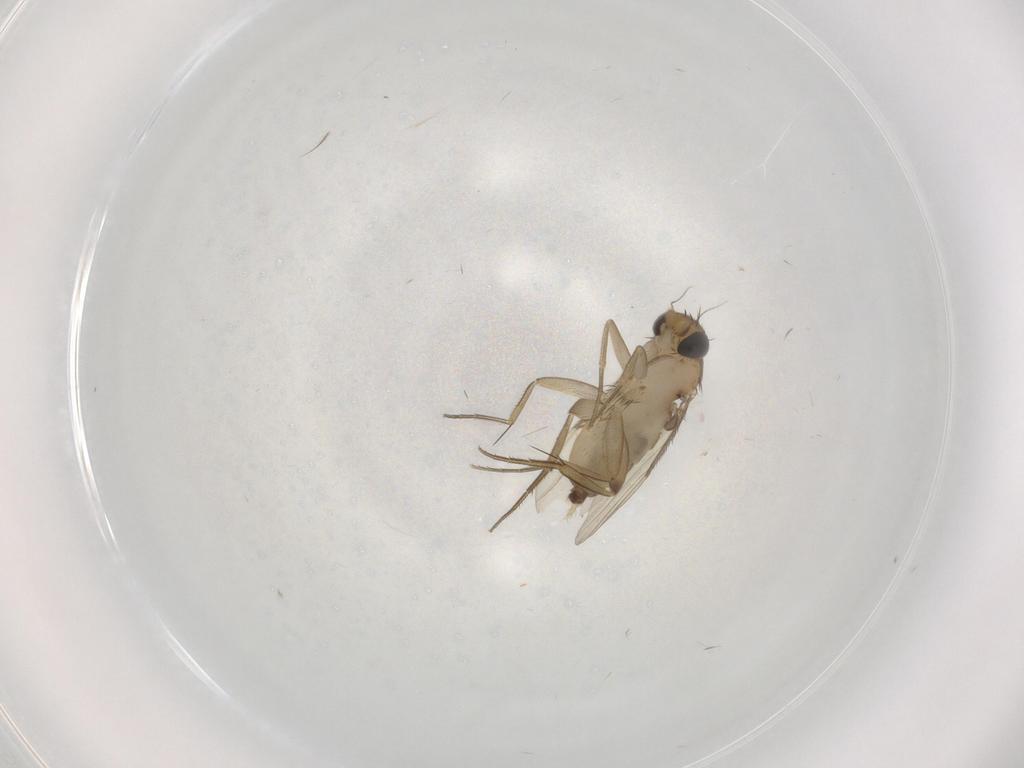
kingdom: Animalia
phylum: Arthropoda
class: Insecta
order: Diptera
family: Phoridae
